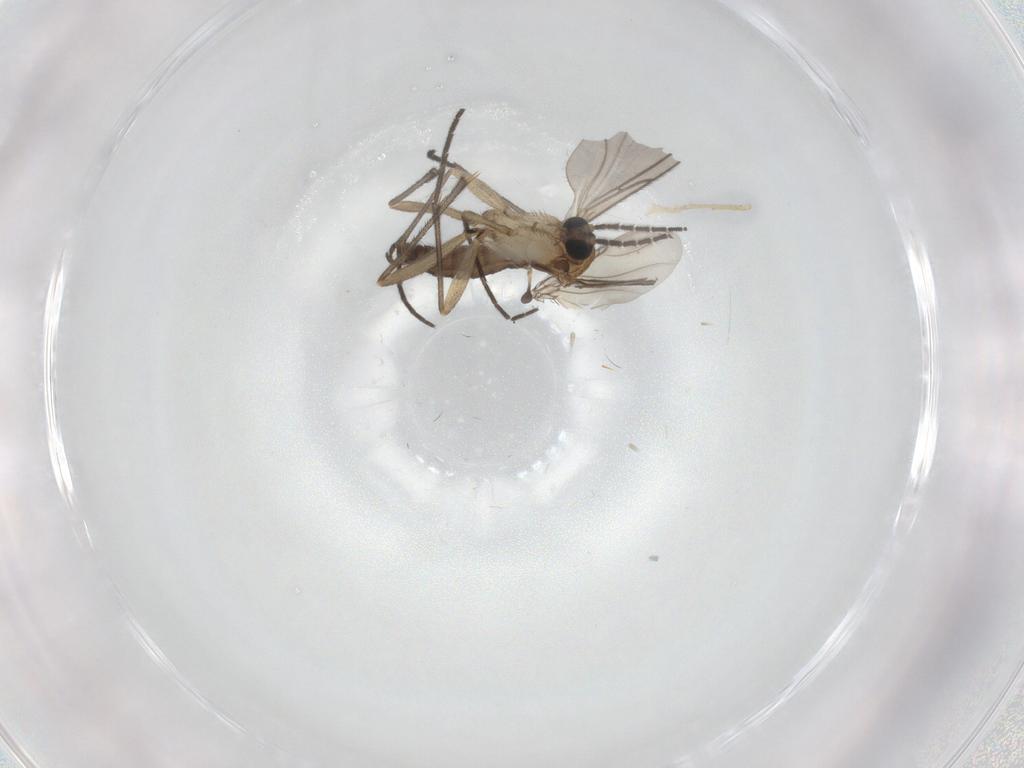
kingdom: Animalia
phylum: Arthropoda
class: Insecta
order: Diptera
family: Sciaridae
